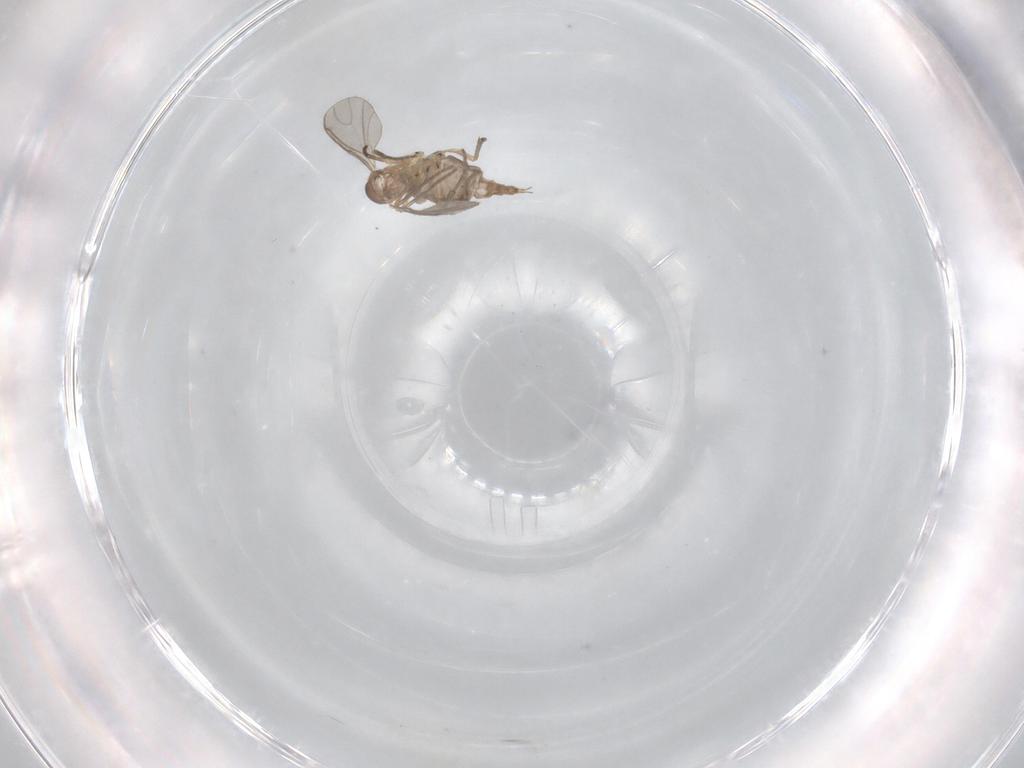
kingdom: Animalia
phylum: Arthropoda
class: Insecta
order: Diptera
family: Sciaridae
